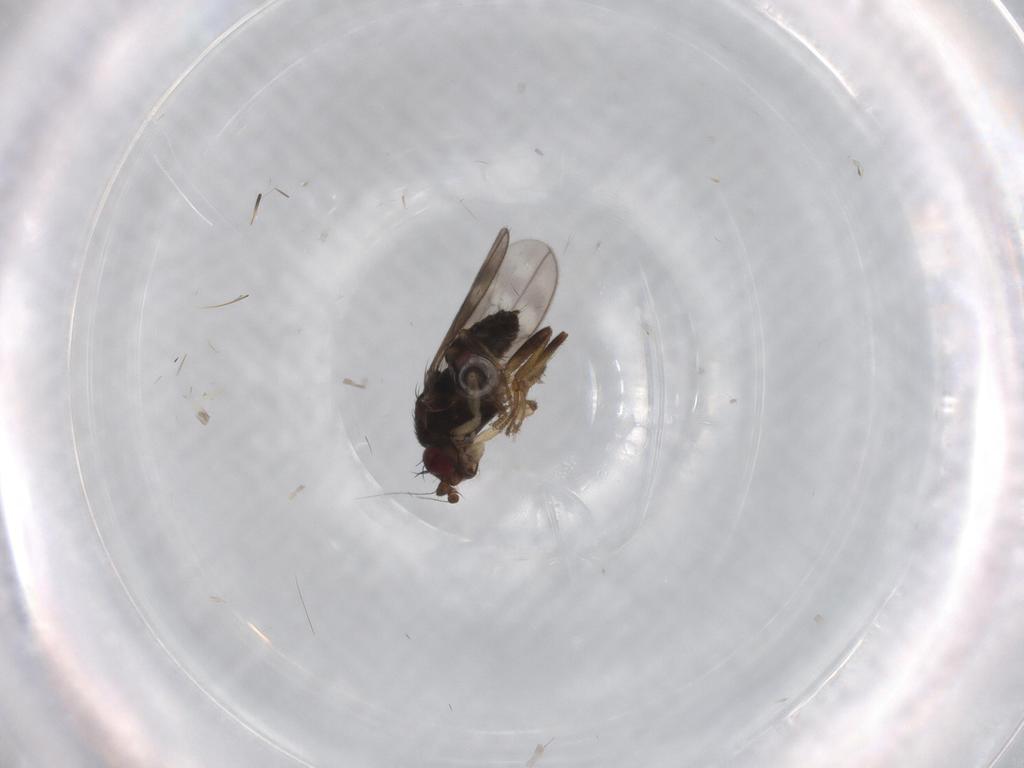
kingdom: Animalia
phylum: Arthropoda
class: Insecta
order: Diptera
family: Sphaeroceridae
